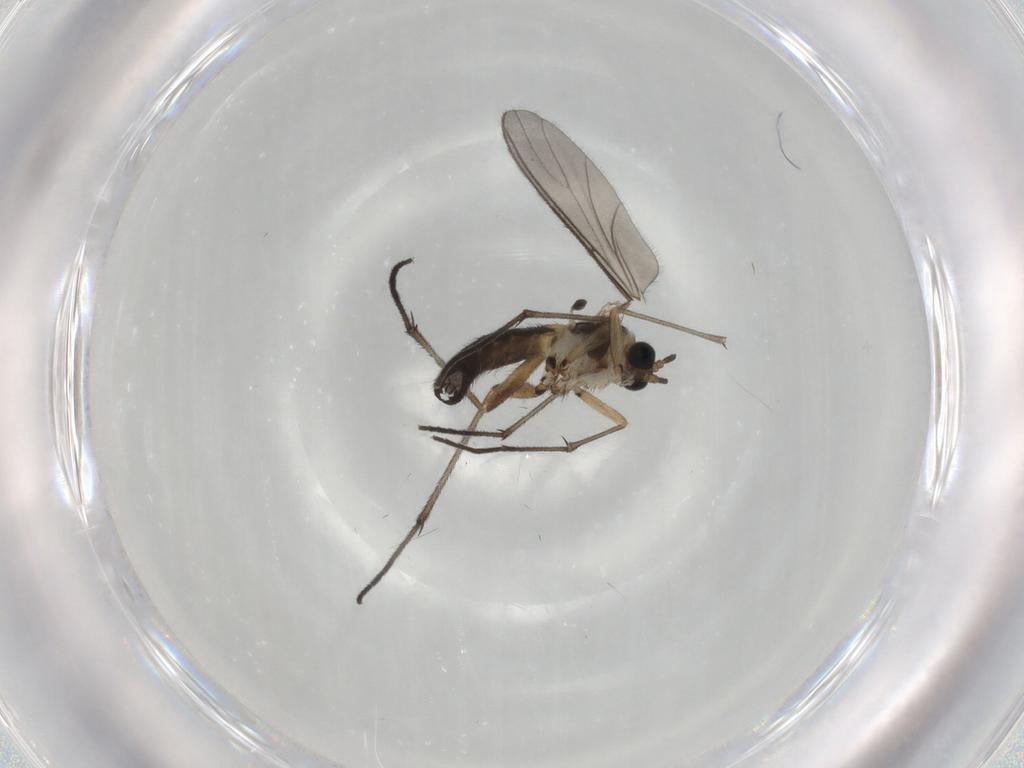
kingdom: Animalia
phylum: Arthropoda
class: Insecta
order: Diptera
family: Sciaridae
